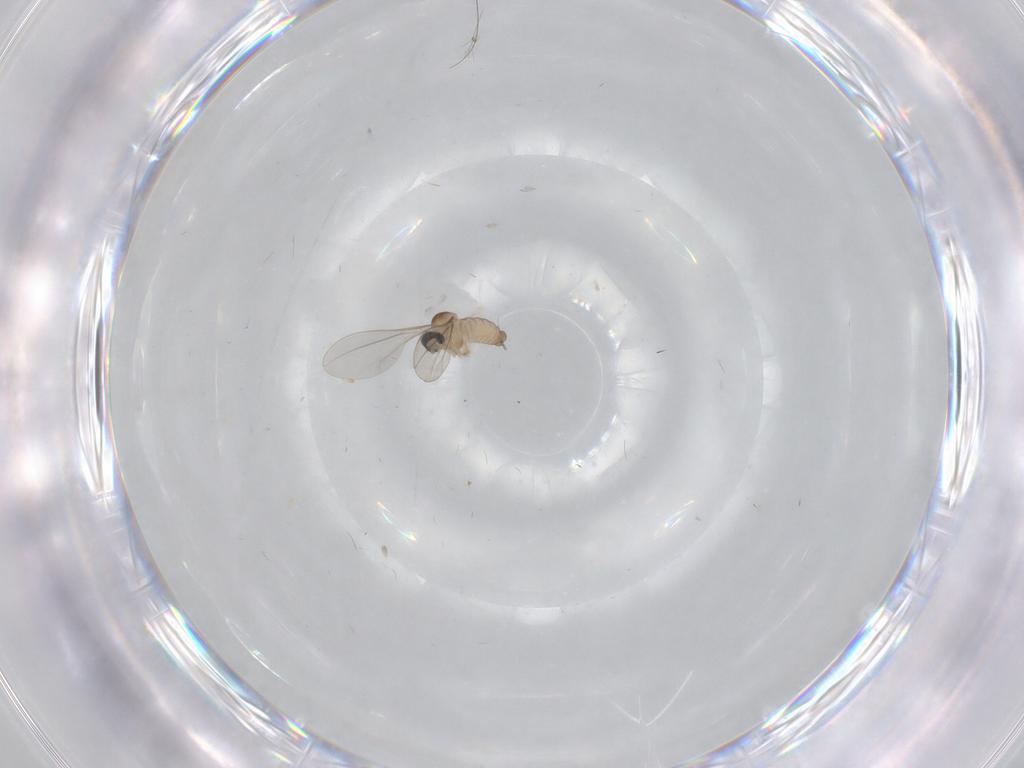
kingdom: Animalia
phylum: Arthropoda
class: Insecta
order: Diptera
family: Cecidomyiidae
